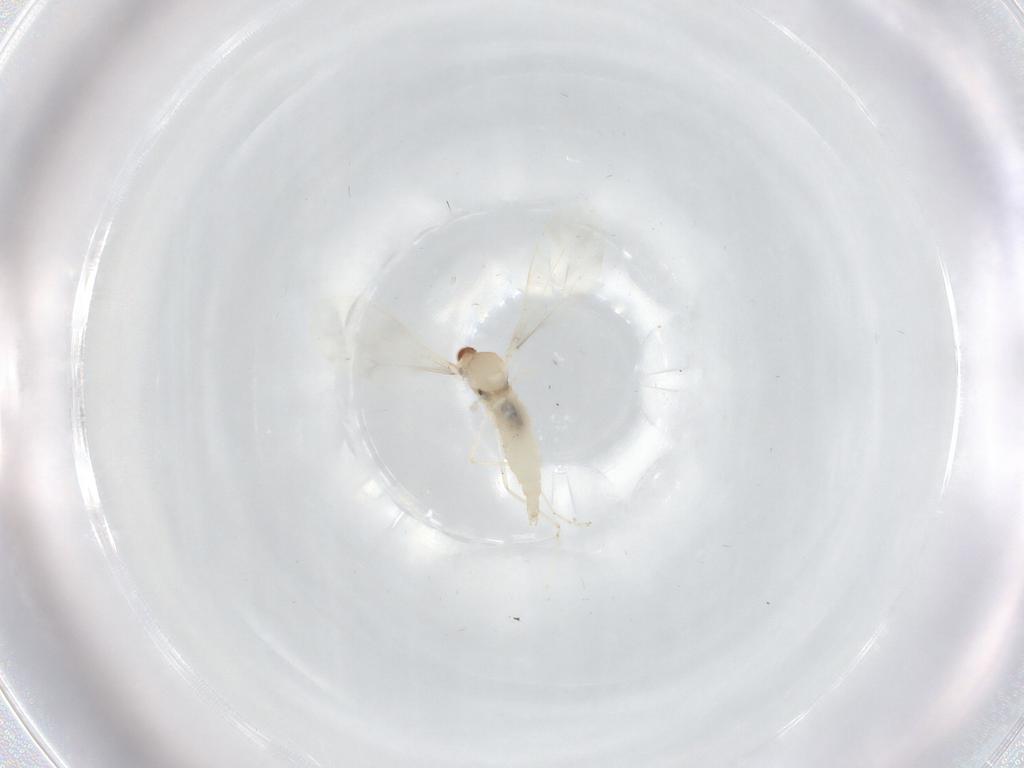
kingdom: Animalia
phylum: Arthropoda
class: Insecta
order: Diptera
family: Cecidomyiidae
